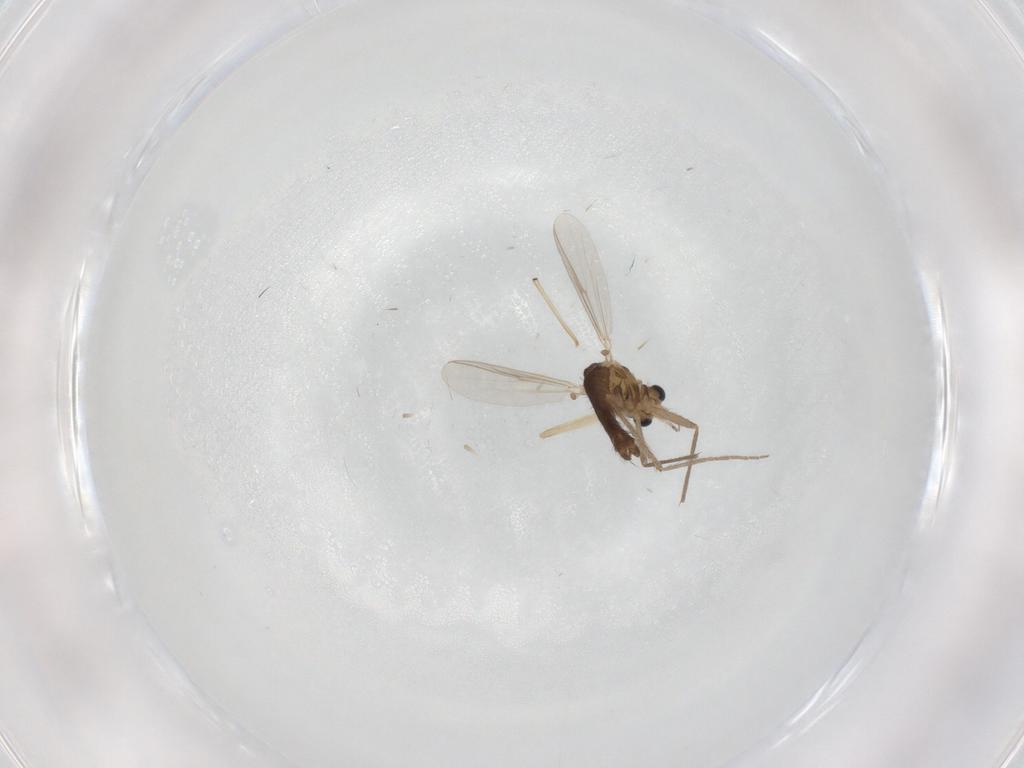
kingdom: Animalia
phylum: Arthropoda
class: Insecta
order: Diptera
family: Chironomidae
